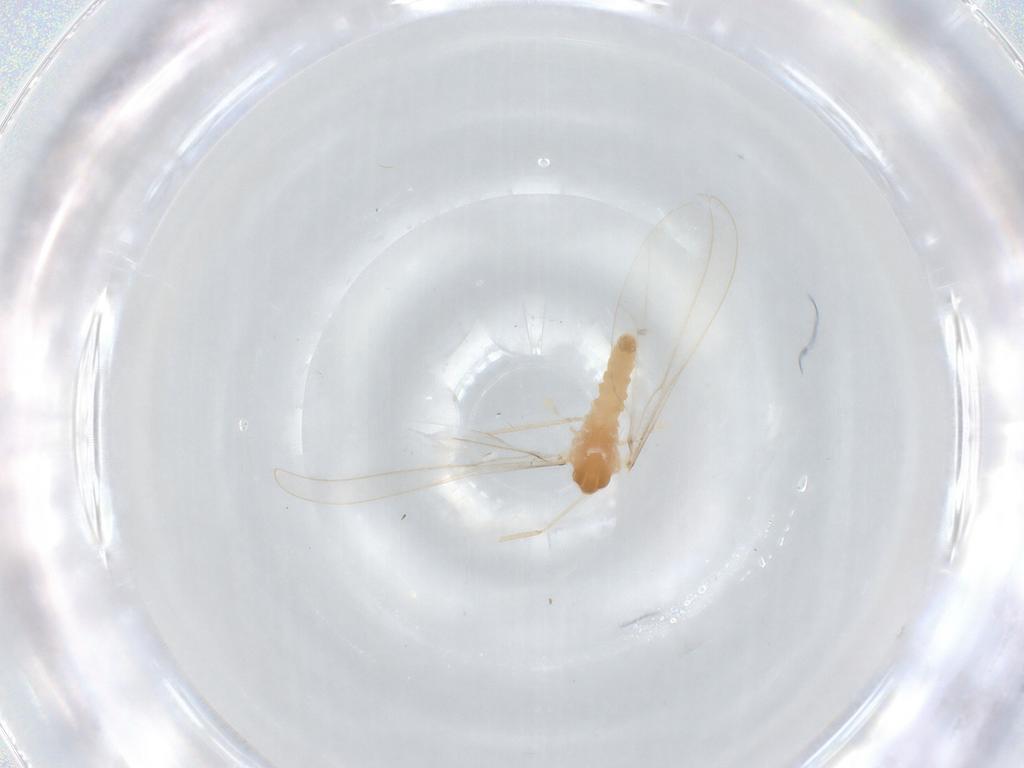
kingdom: Animalia
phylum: Arthropoda
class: Insecta
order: Diptera
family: Cecidomyiidae
